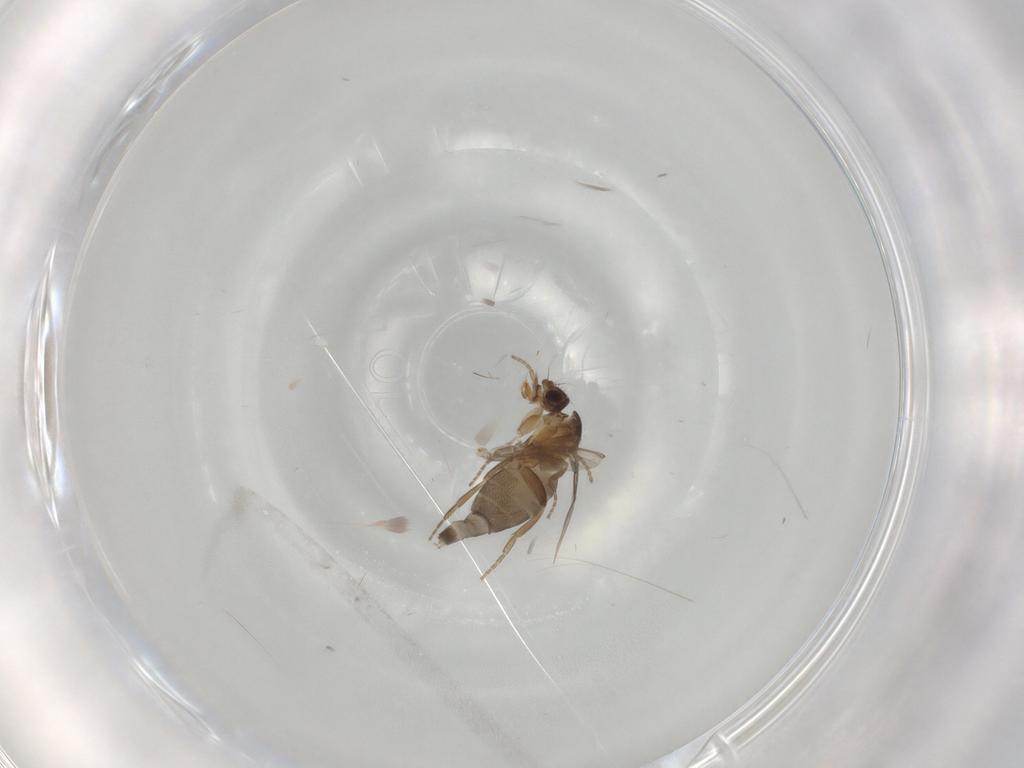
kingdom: Animalia
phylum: Arthropoda
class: Insecta
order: Diptera
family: Phoridae
